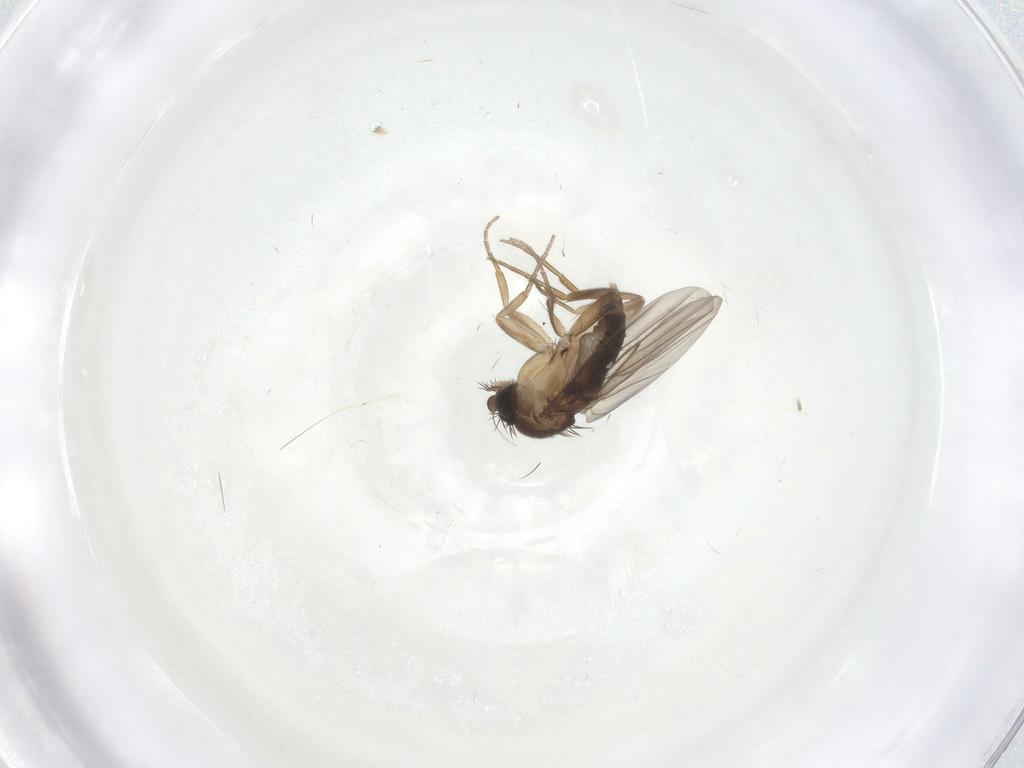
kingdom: Animalia
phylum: Arthropoda
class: Insecta
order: Diptera
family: Phoridae
